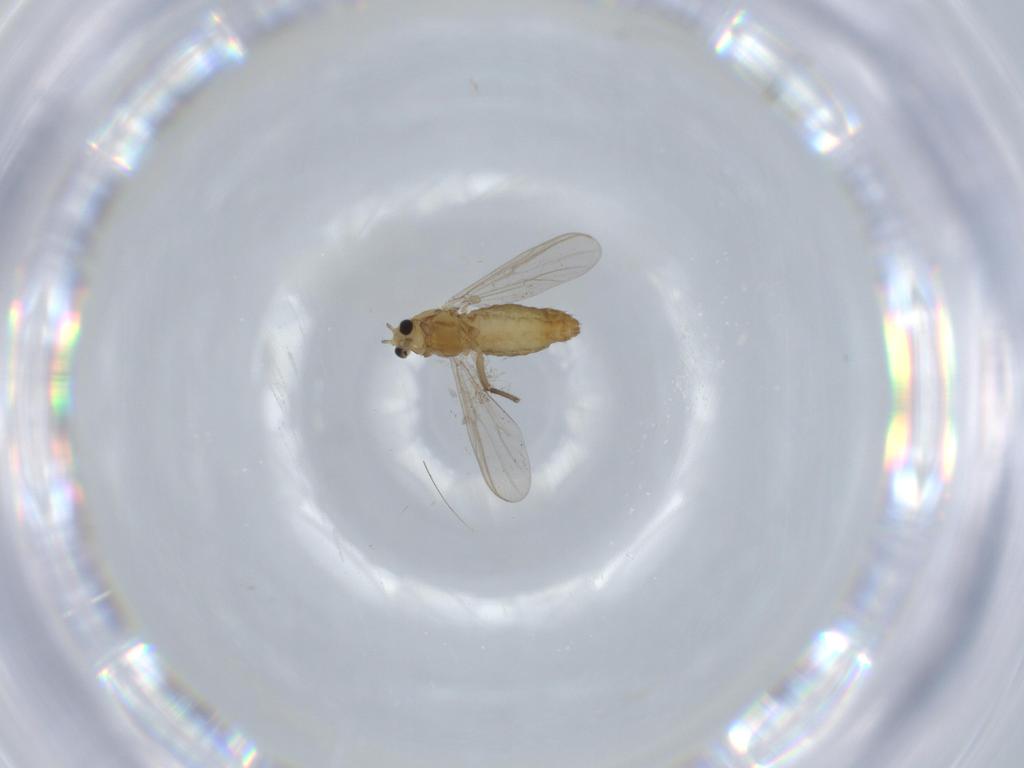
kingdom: Animalia
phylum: Arthropoda
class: Insecta
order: Diptera
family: Chironomidae
